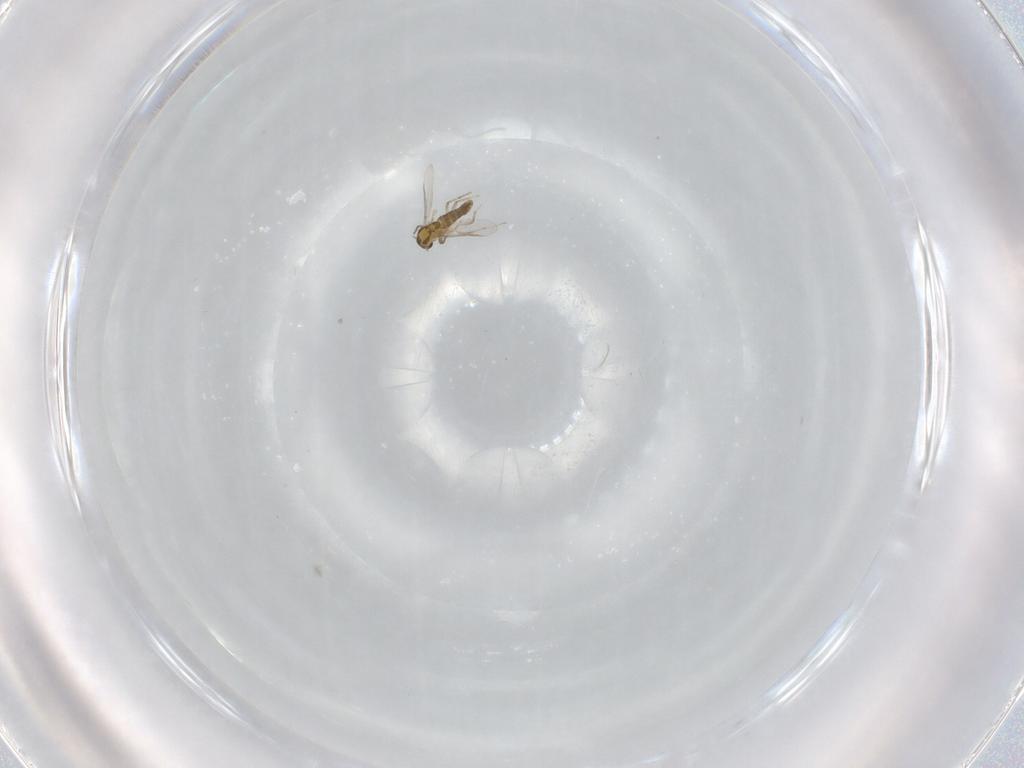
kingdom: Animalia
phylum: Arthropoda
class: Insecta
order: Diptera
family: Chironomidae
